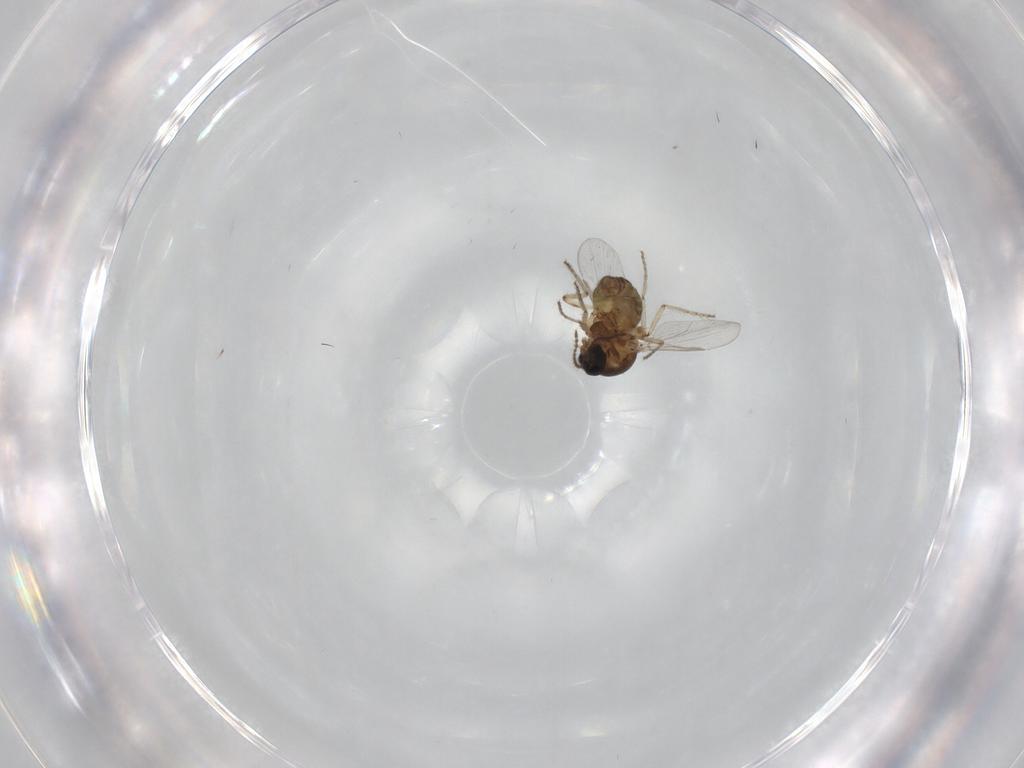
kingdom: Animalia
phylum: Arthropoda
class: Insecta
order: Diptera
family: Ceratopogonidae
